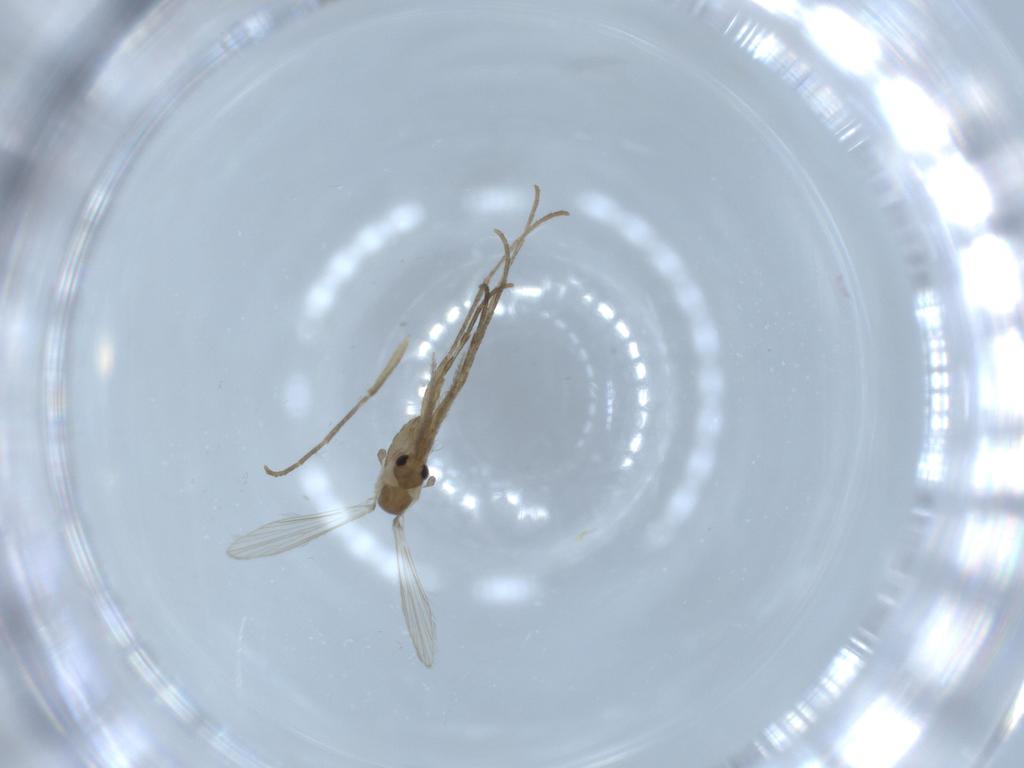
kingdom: Animalia
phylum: Arthropoda
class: Insecta
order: Diptera
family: Psychodidae
